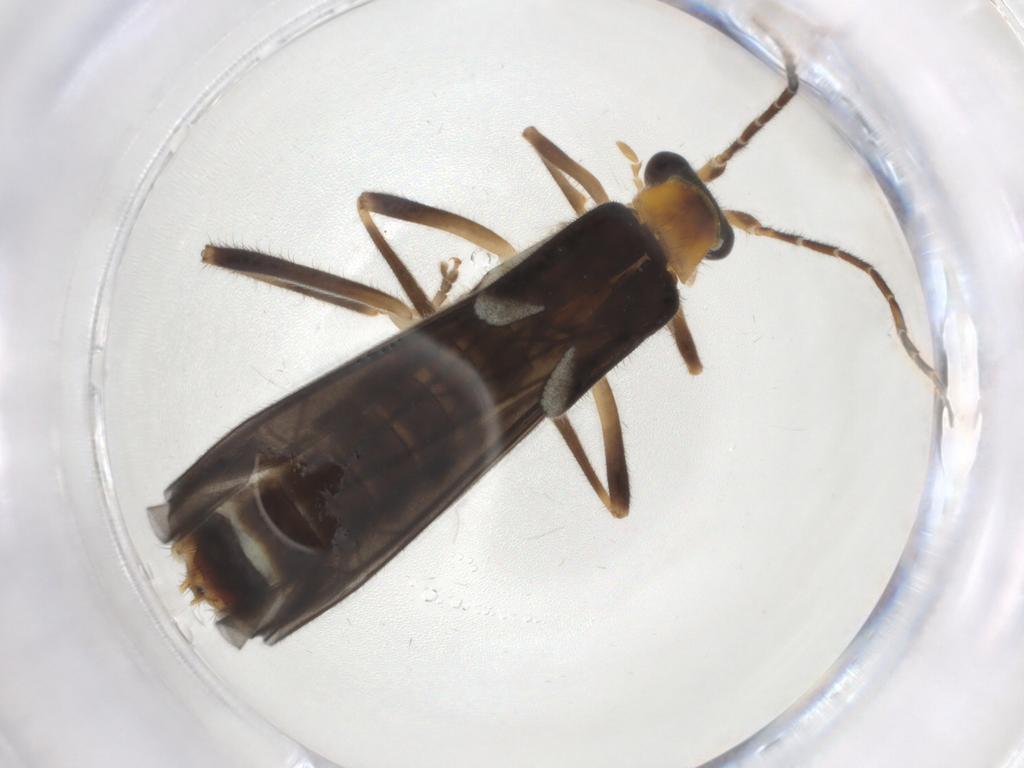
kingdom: Animalia
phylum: Arthropoda
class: Insecta
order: Coleoptera
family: Cantharidae
